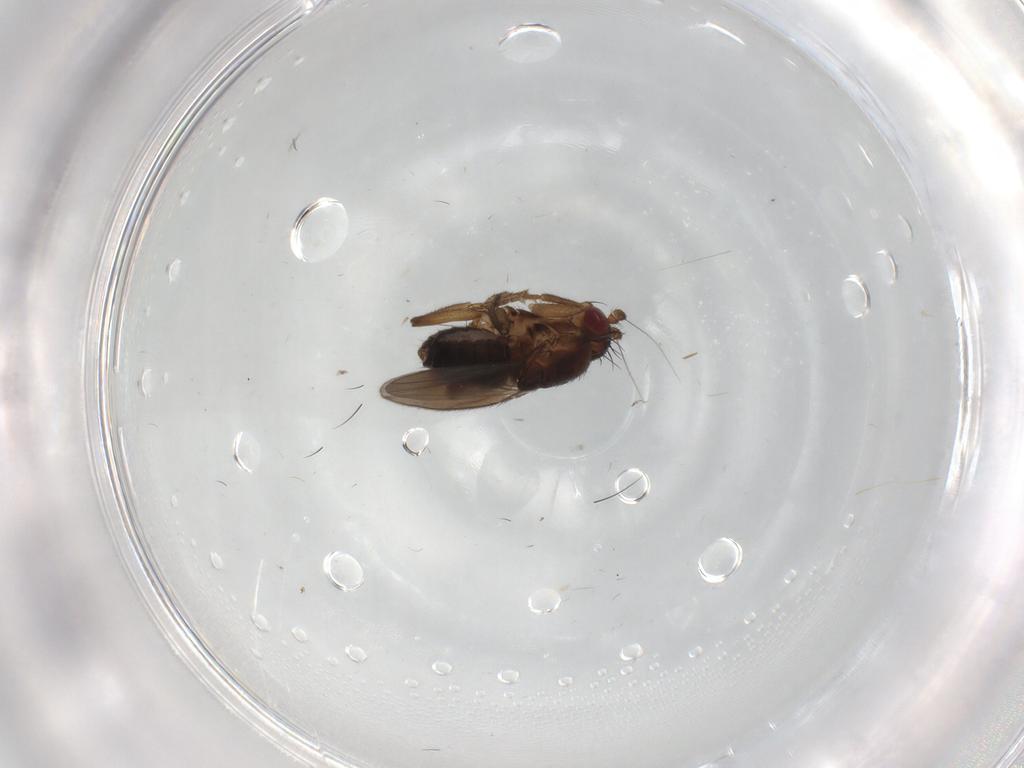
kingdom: Animalia
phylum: Arthropoda
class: Insecta
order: Diptera
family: Sphaeroceridae
